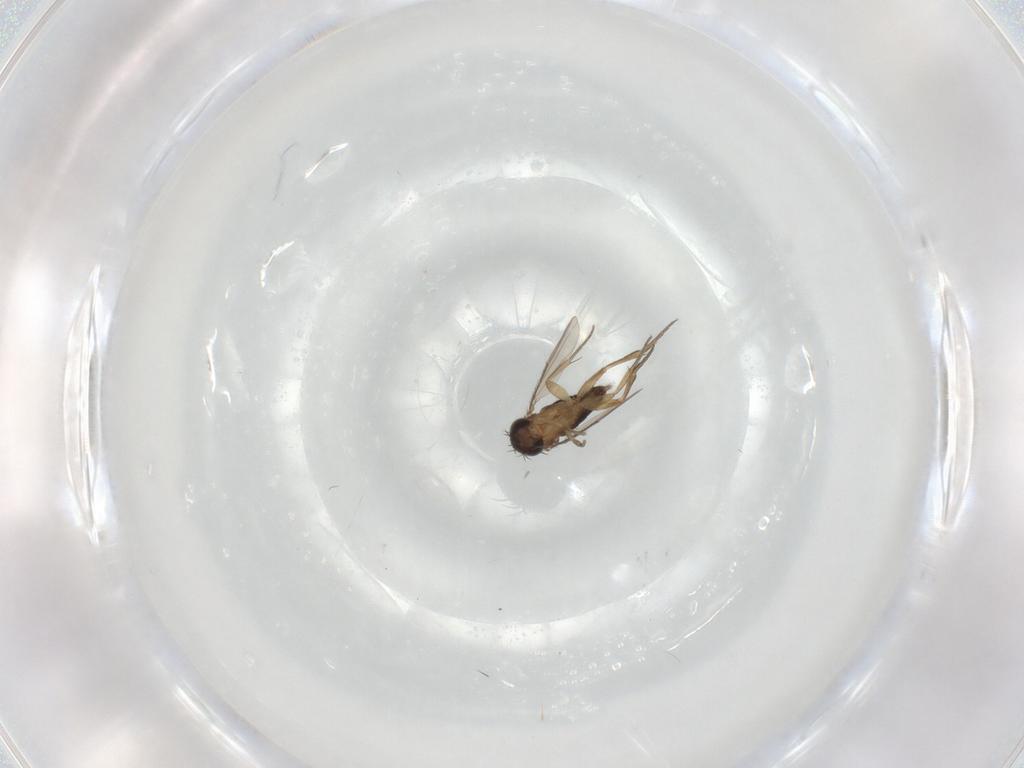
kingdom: Animalia
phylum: Arthropoda
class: Insecta
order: Diptera
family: Phoridae
